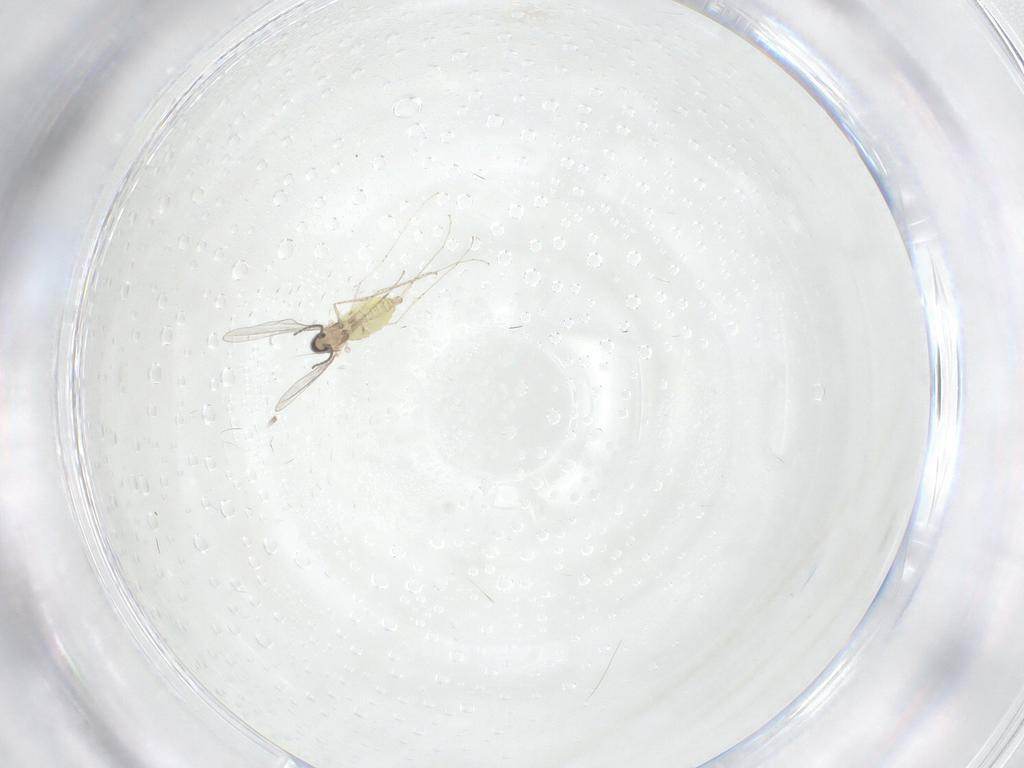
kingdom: Animalia
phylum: Arthropoda
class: Insecta
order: Diptera
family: Cecidomyiidae
